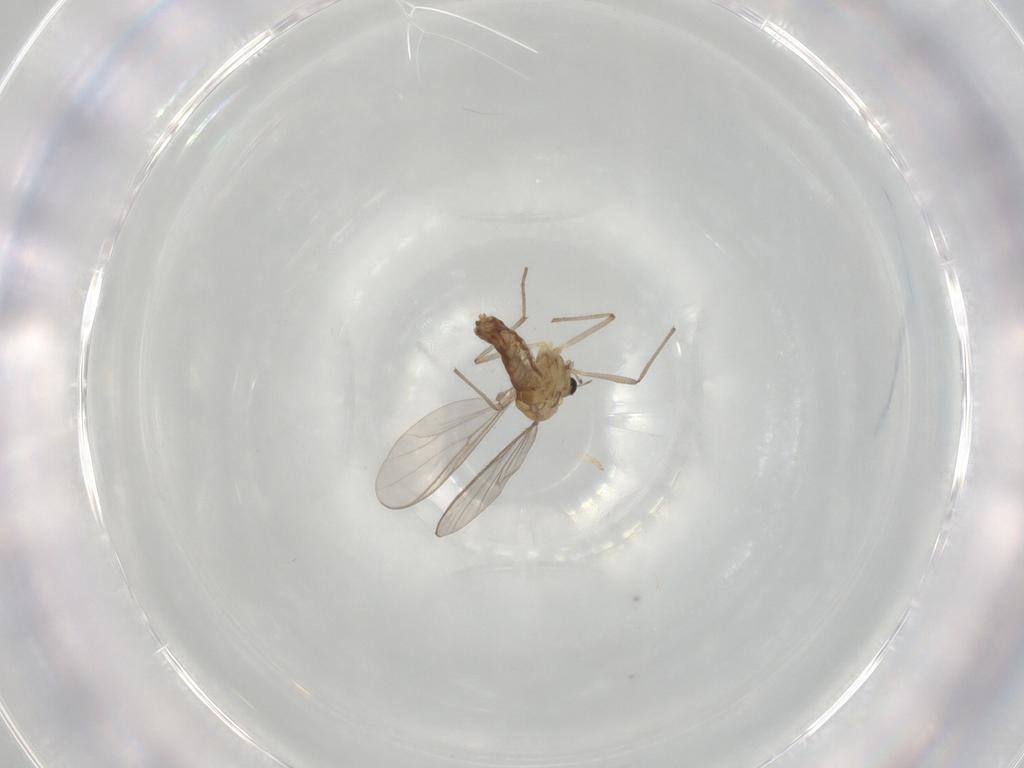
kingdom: Animalia
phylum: Arthropoda
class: Insecta
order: Diptera
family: Chironomidae
